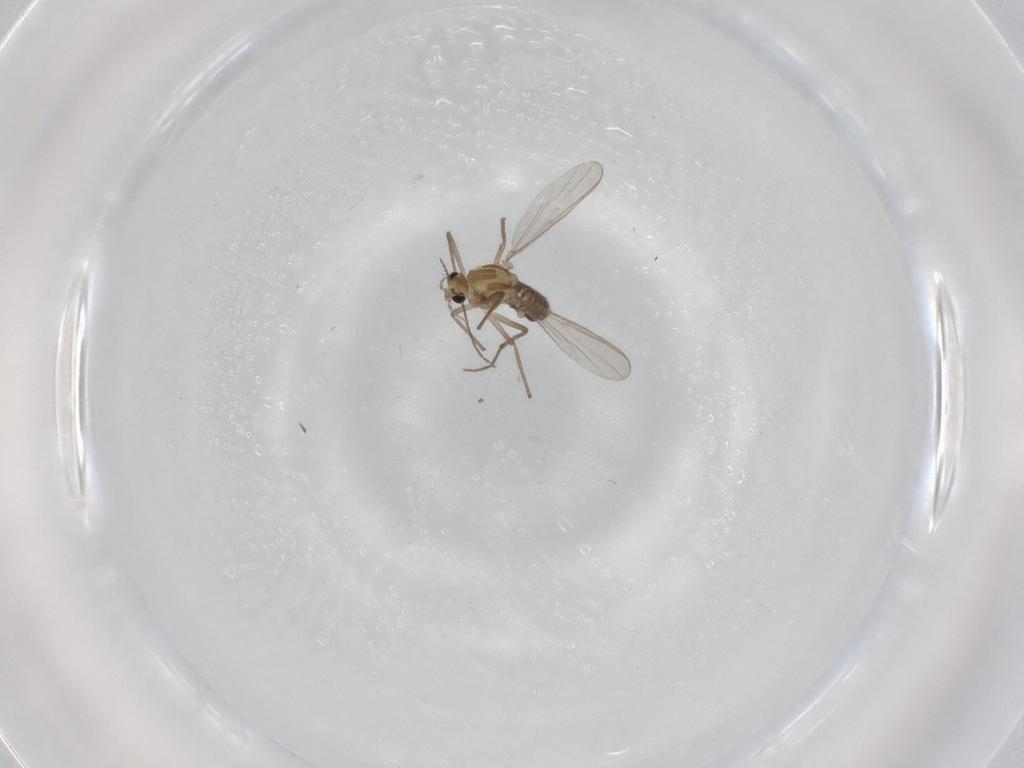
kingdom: Animalia
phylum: Arthropoda
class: Insecta
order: Diptera
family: Chironomidae
